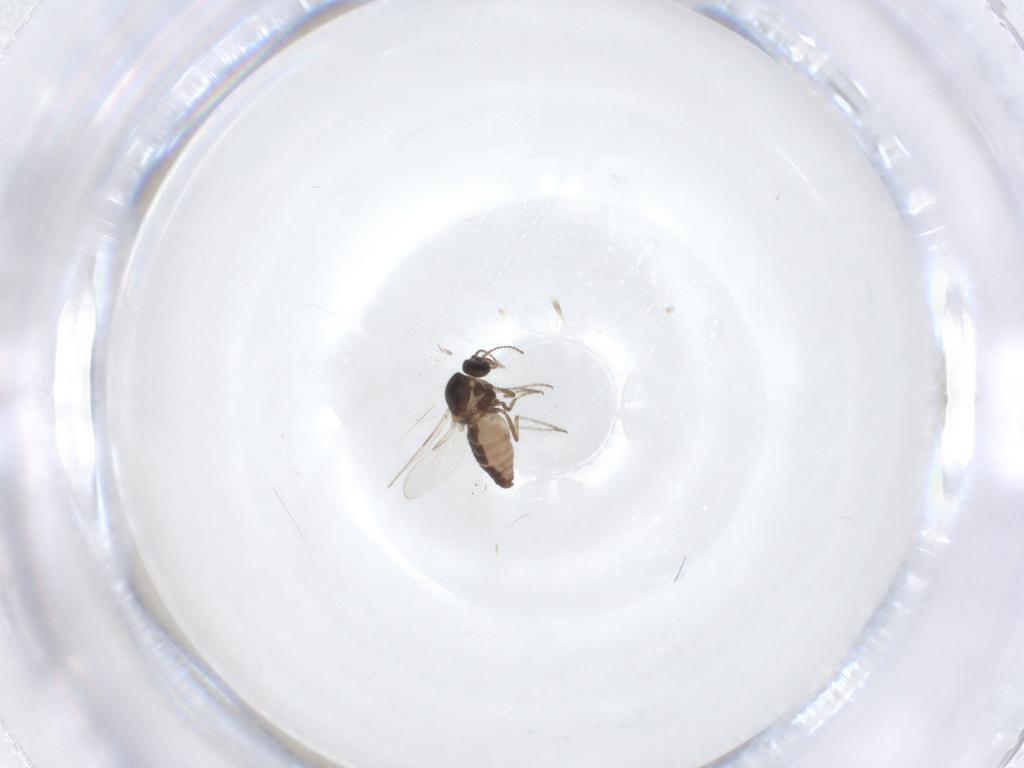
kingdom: Animalia
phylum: Arthropoda
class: Insecta
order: Diptera
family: Ceratopogonidae
